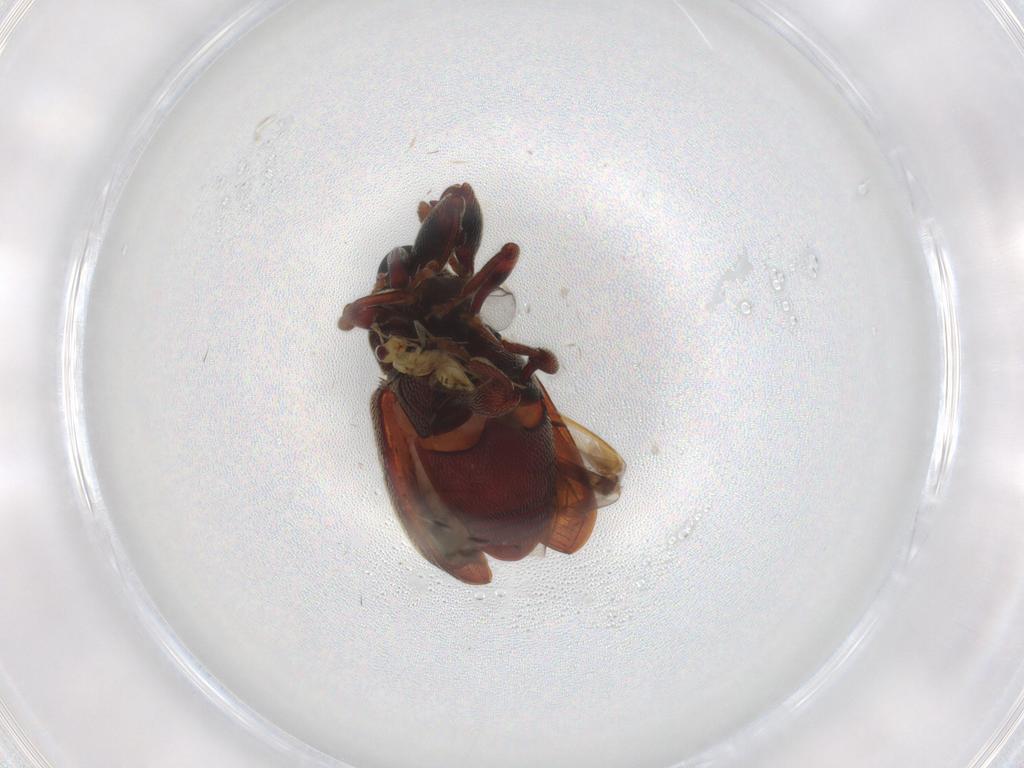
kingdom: Animalia
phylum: Arthropoda
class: Insecta
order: Coleoptera
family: Curculionidae
